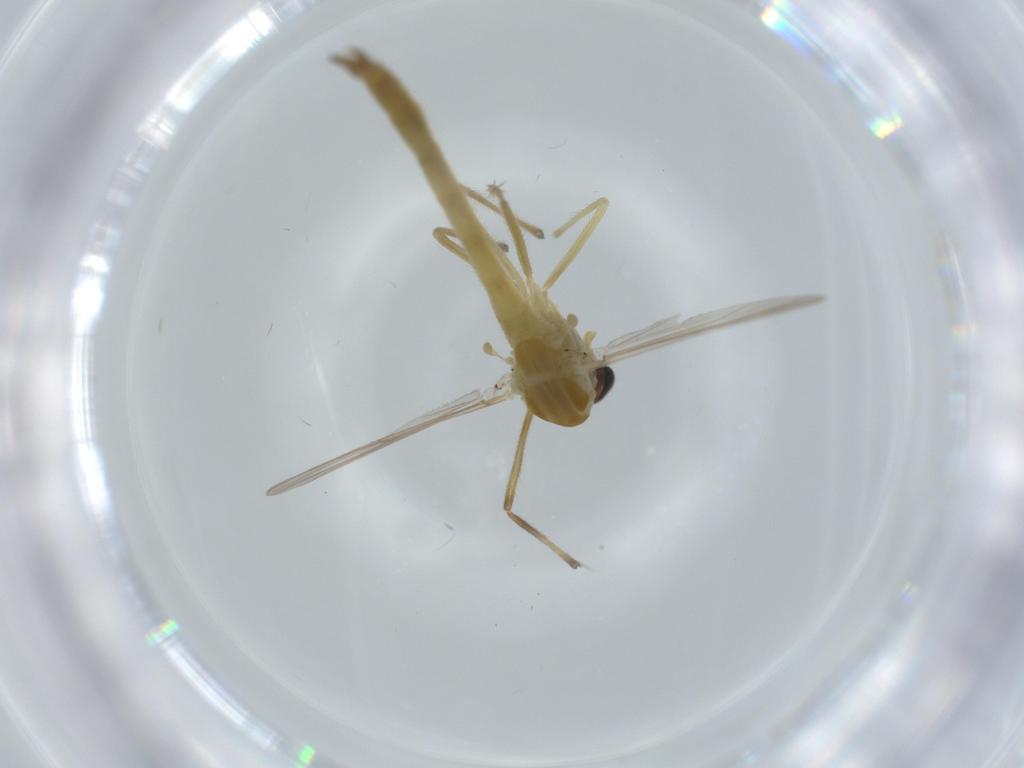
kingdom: Animalia
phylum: Arthropoda
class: Insecta
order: Diptera
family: Chironomidae
